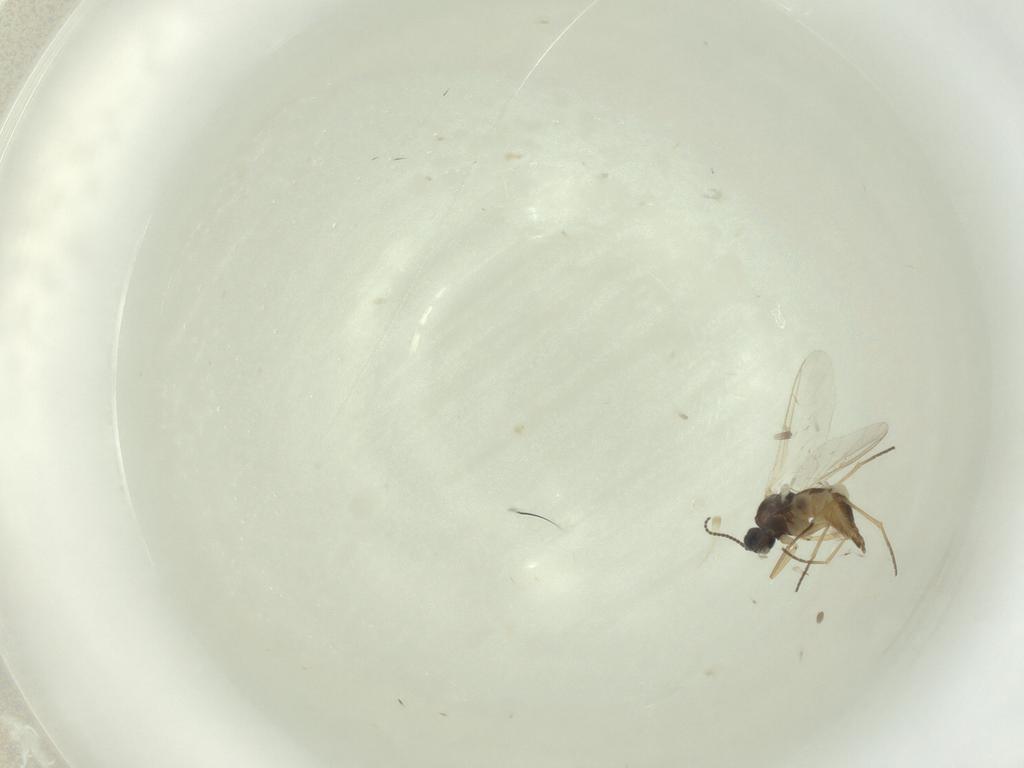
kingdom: Animalia
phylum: Arthropoda
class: Insecta
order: Diptera
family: Sciaridae
